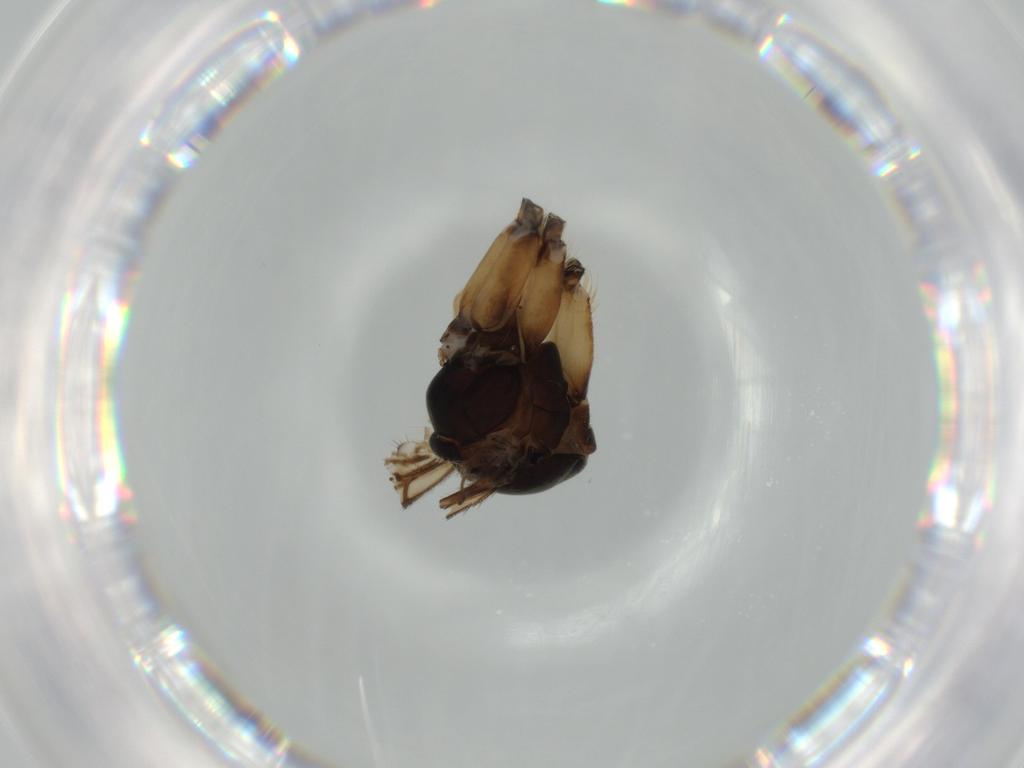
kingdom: Animalia
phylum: Arthropoda
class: Insecta
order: Diptera
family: Mycetophilidae
